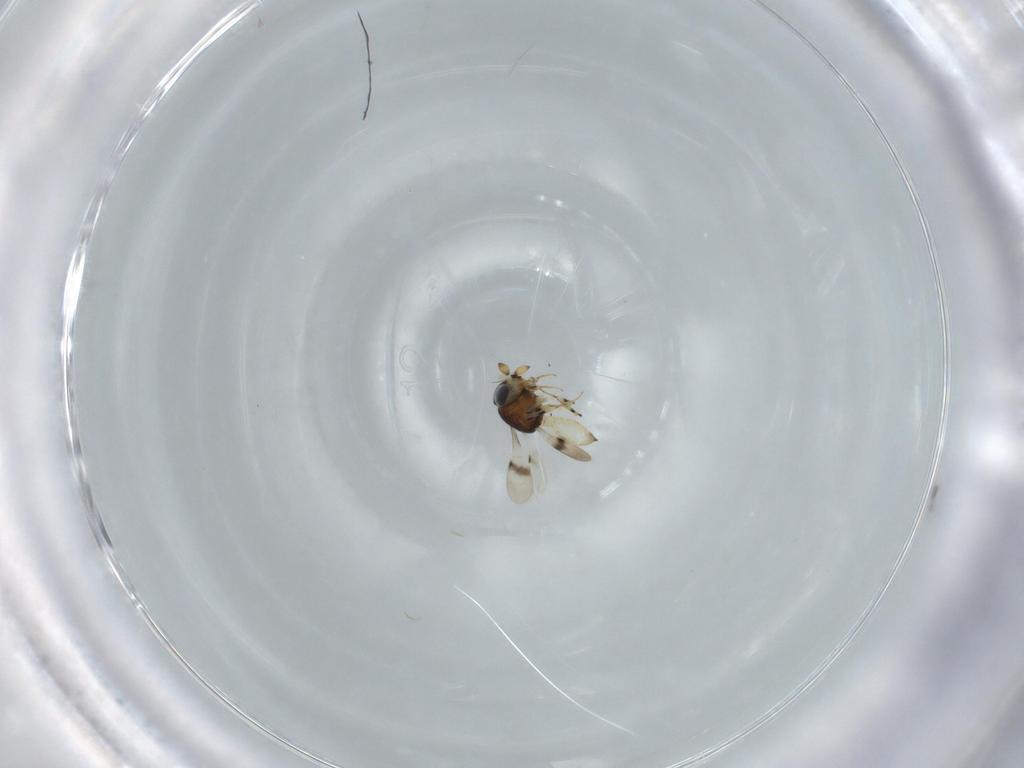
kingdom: Animalia
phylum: Arthropoda
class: Insecta
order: Hymenoptera
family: Scelionidae
